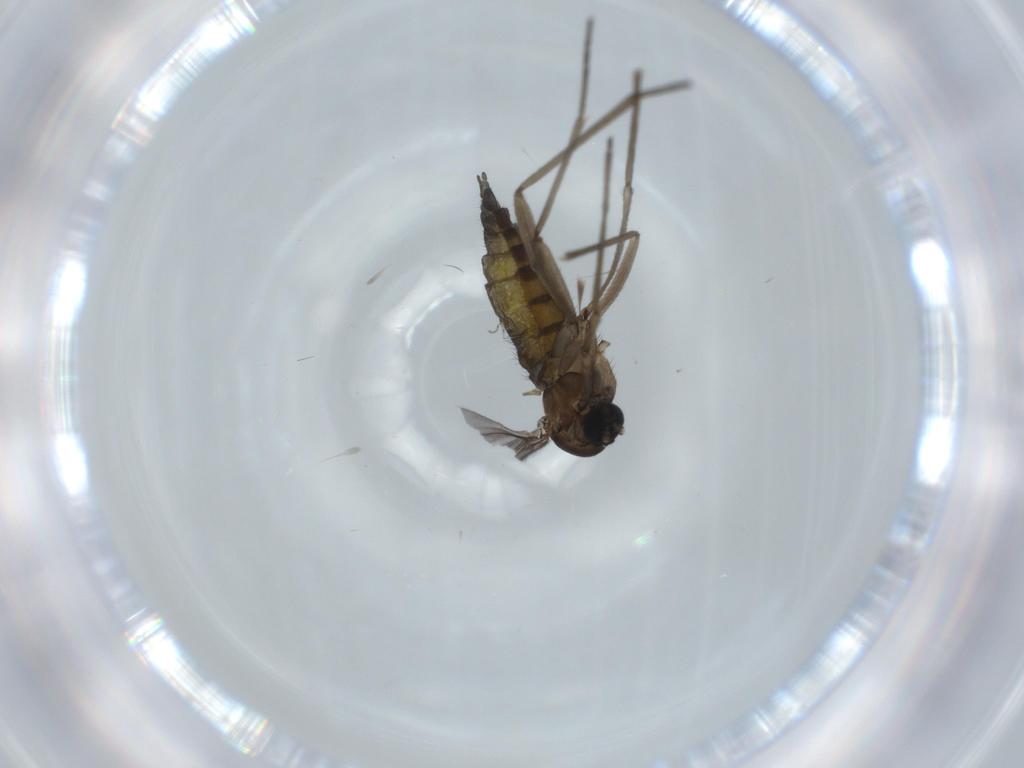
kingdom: Animalia
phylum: Arthropoda
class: Insecta
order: Diptera
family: Sciaridae
